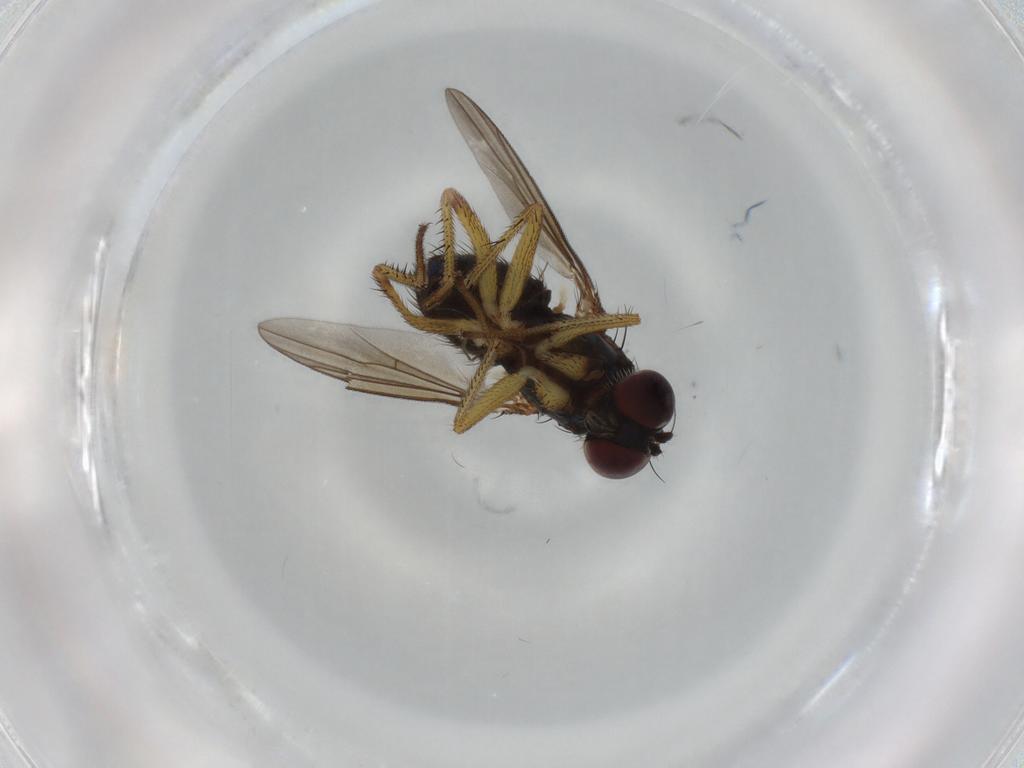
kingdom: Animalia
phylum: Arthropoda
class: Insecta
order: Diptera
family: Dolichopodidae
